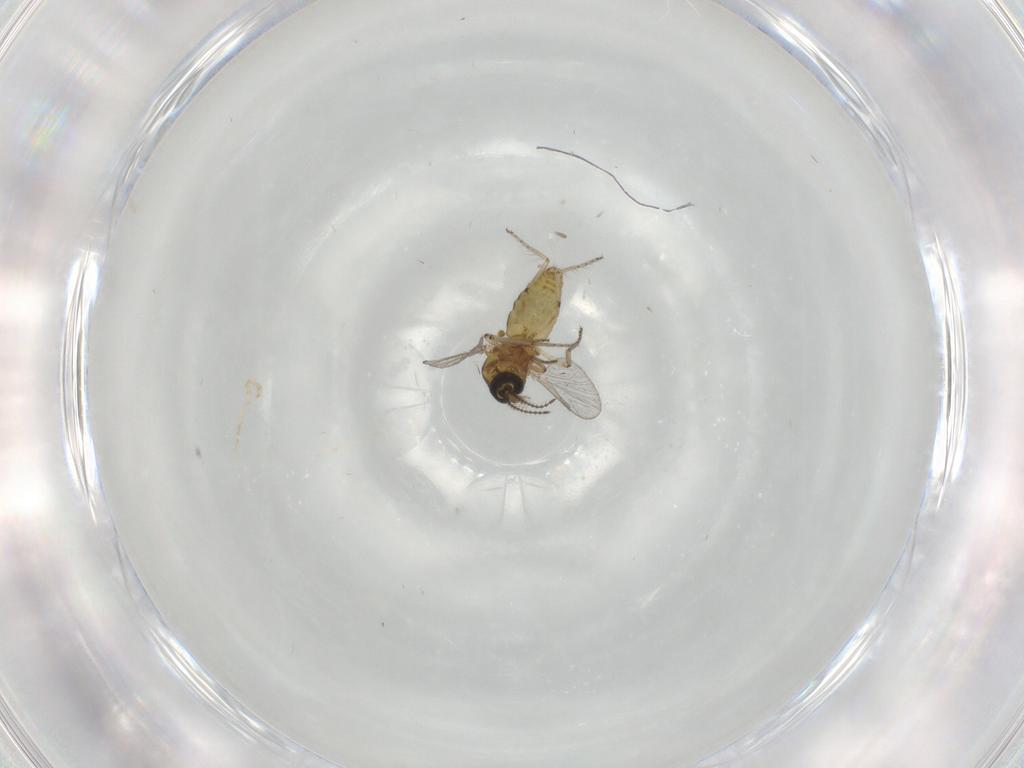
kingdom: Animalia
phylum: Arthropoda
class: Insecta
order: Diptera
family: Ceratopogonidae
